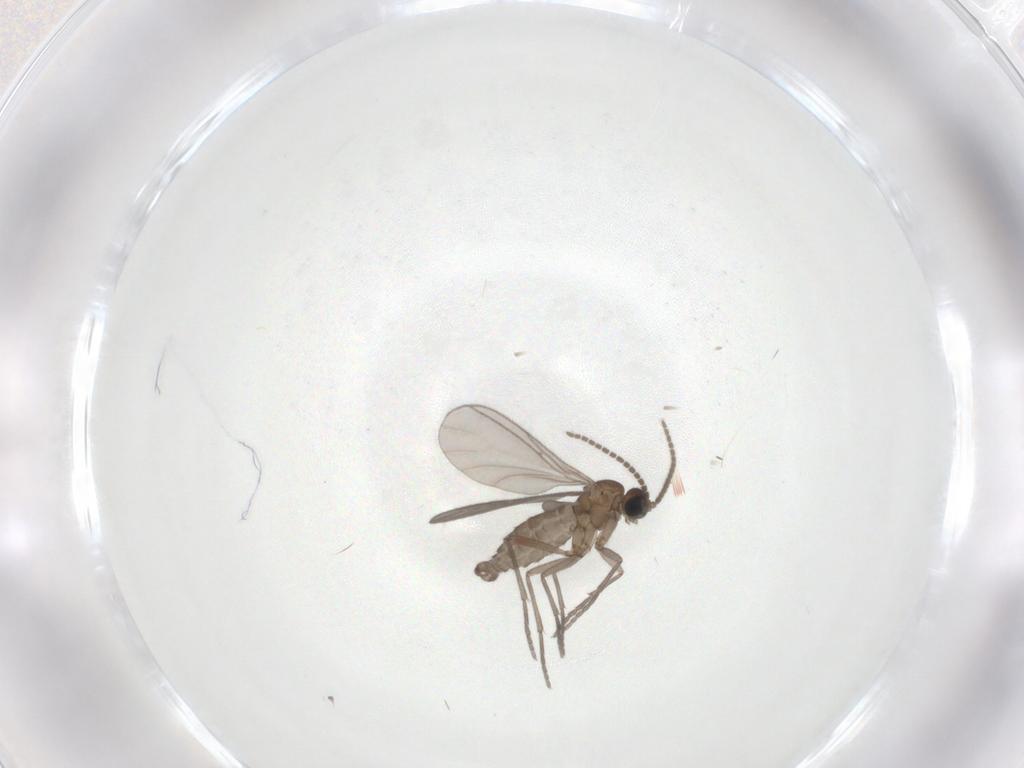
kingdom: Animalia
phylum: Arthropoda
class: Insecta
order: Diptera
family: Sciaridae
